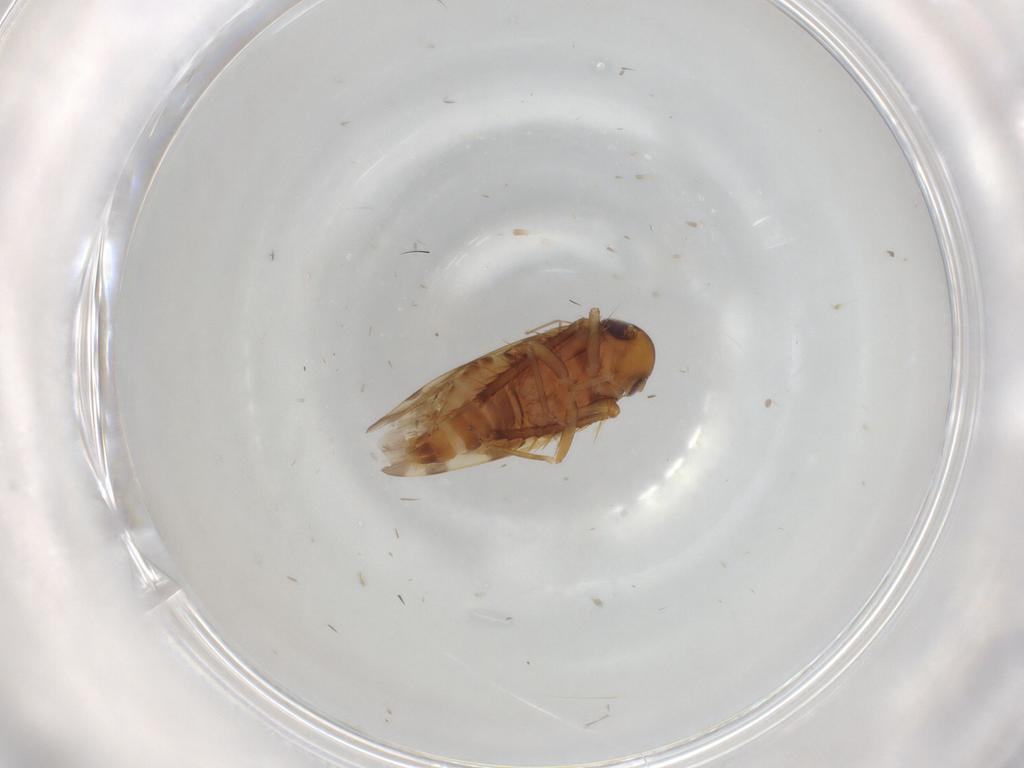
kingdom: Animalia
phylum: Arthropoda
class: Insecta
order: Hemiptera
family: Cicadellidae
